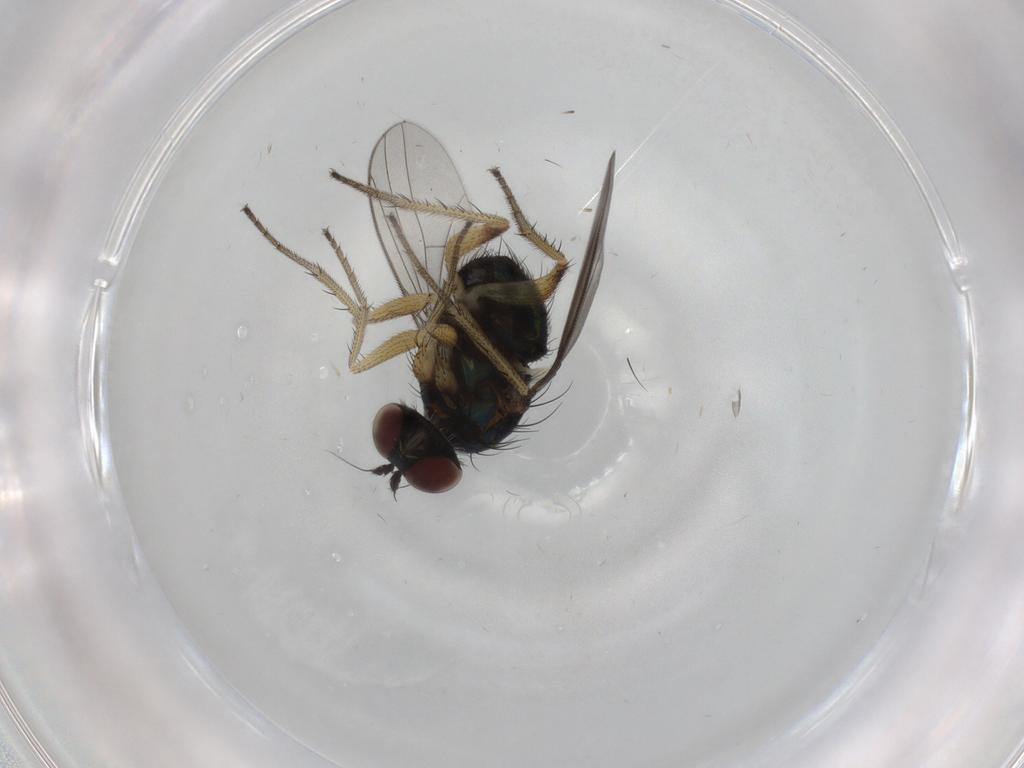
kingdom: Animalia
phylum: Arthropoda
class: Insecta
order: Diptera
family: Dolichopodidae
